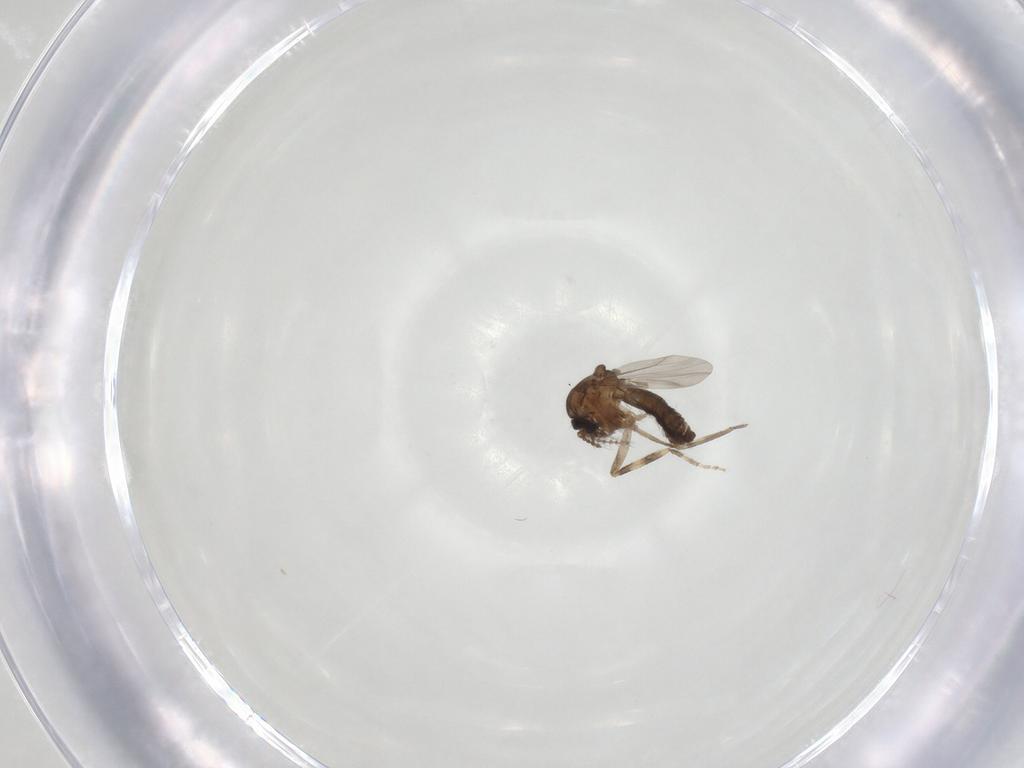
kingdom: Animalia
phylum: Arthropoda
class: Insecta
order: Diptera
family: Ceratopogonidae
